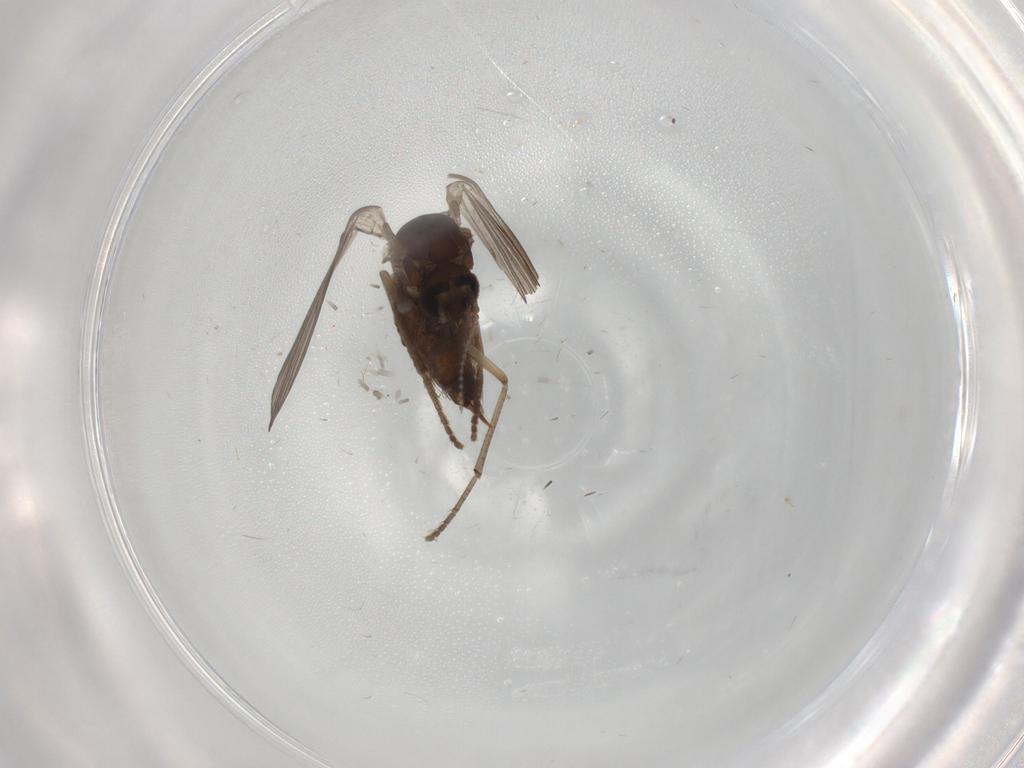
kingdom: Animalia
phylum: Arthropoda
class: Insecta
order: Diptera
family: Psychodidae
